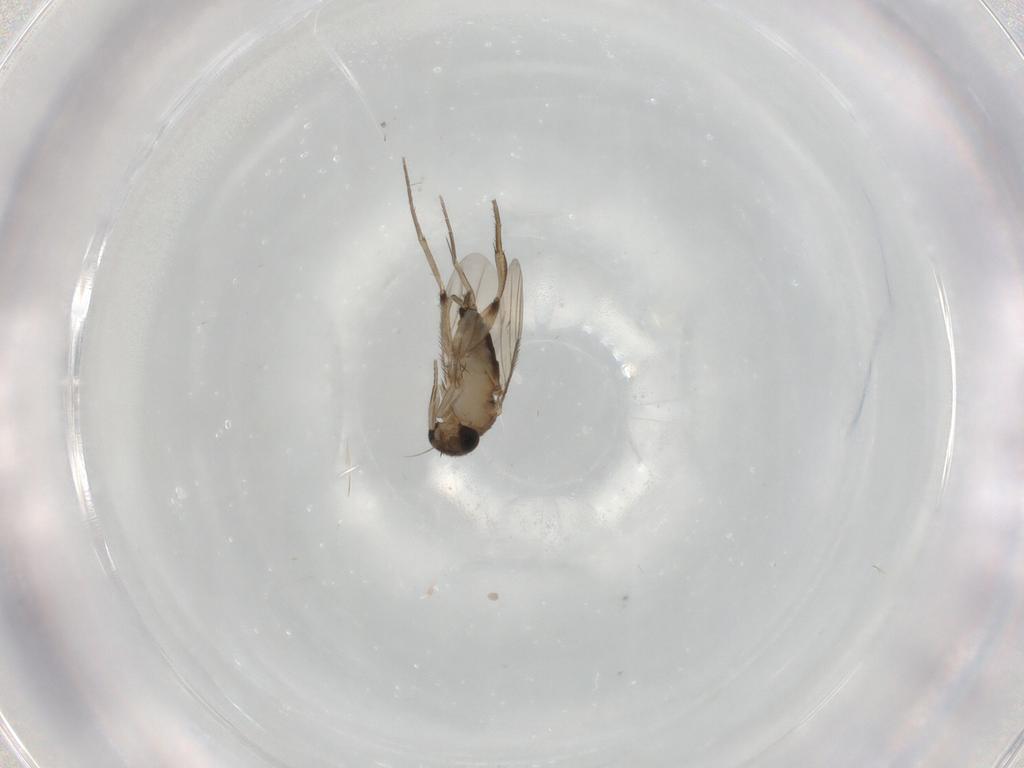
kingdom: Animalia
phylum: Arthropoda
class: Insecta
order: Diptera
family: Phoridae
